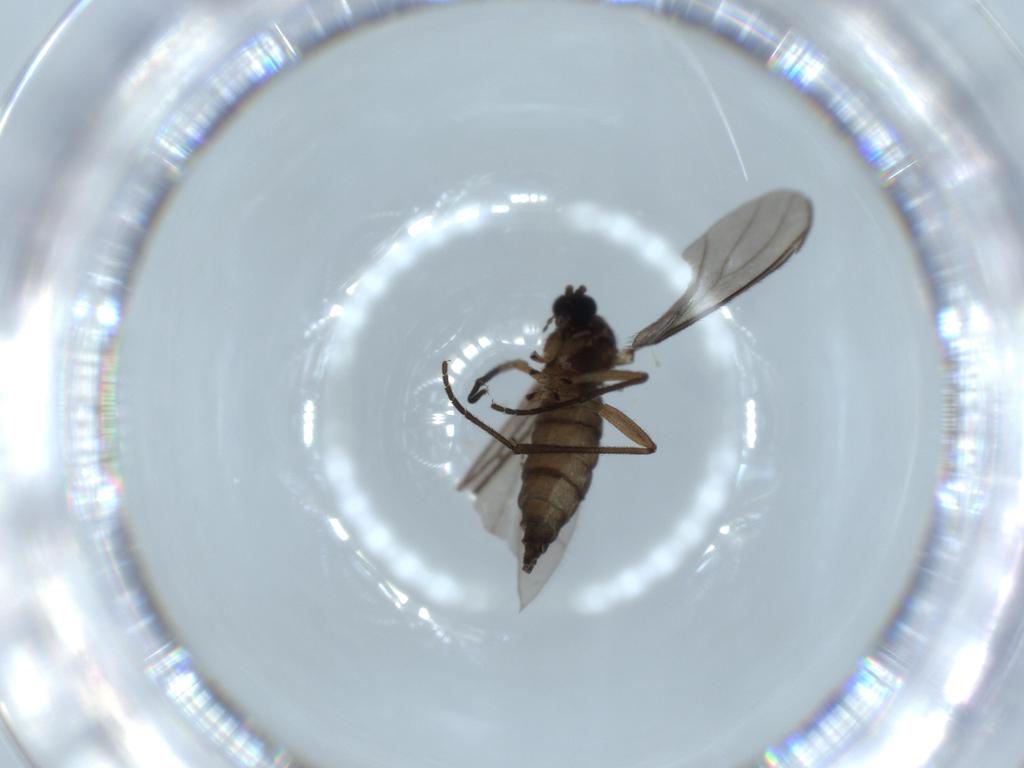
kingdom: Animalia
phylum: Arthropoda
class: Insecta
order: Diptera
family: Sciaridae
